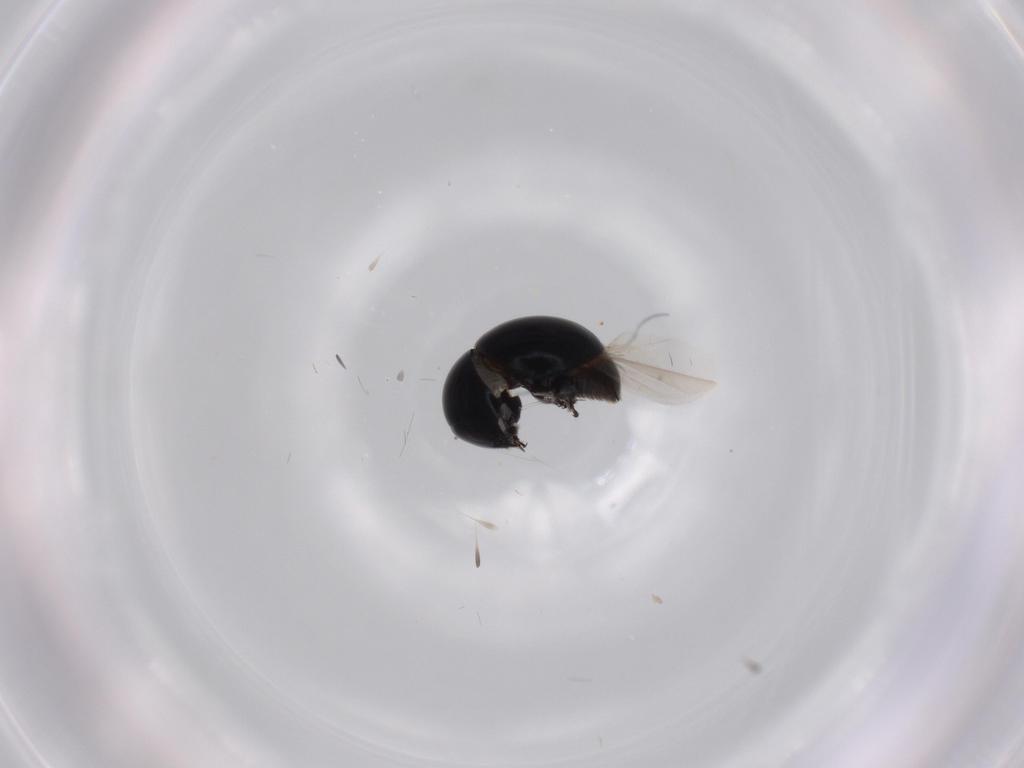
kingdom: Animalia
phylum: Arthropoda
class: Insecta
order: Coleoptera
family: Cybocephalidae
